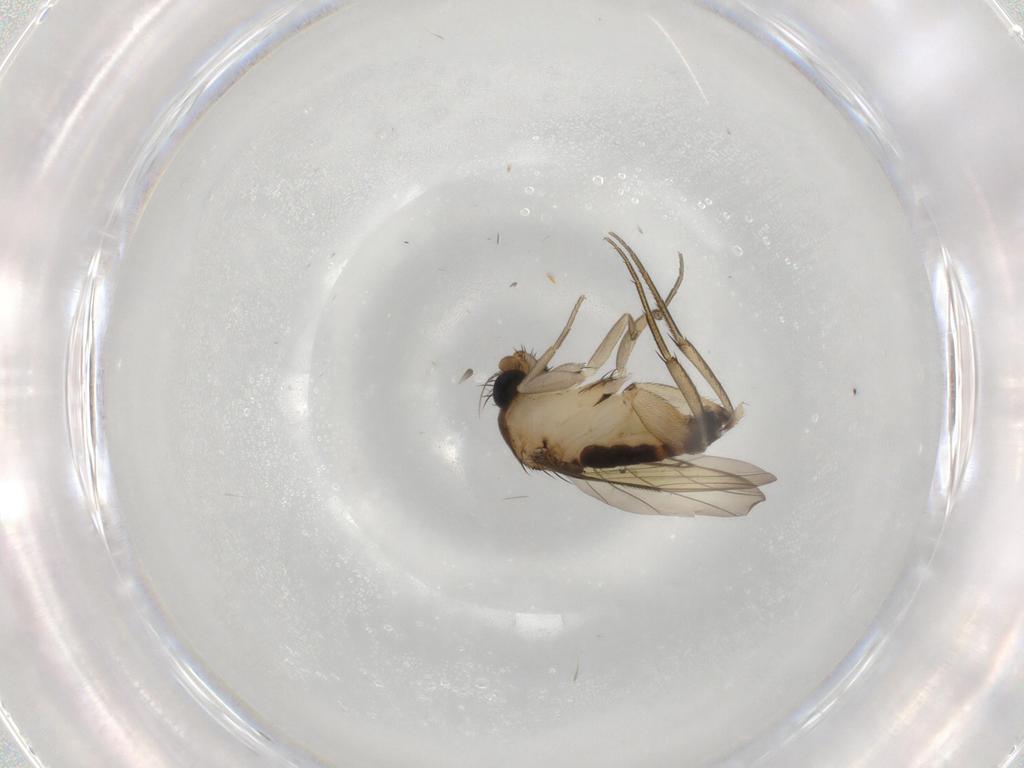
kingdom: Animalia
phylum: Arthropoda
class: Insecta
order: Diptera
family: Phoridae
